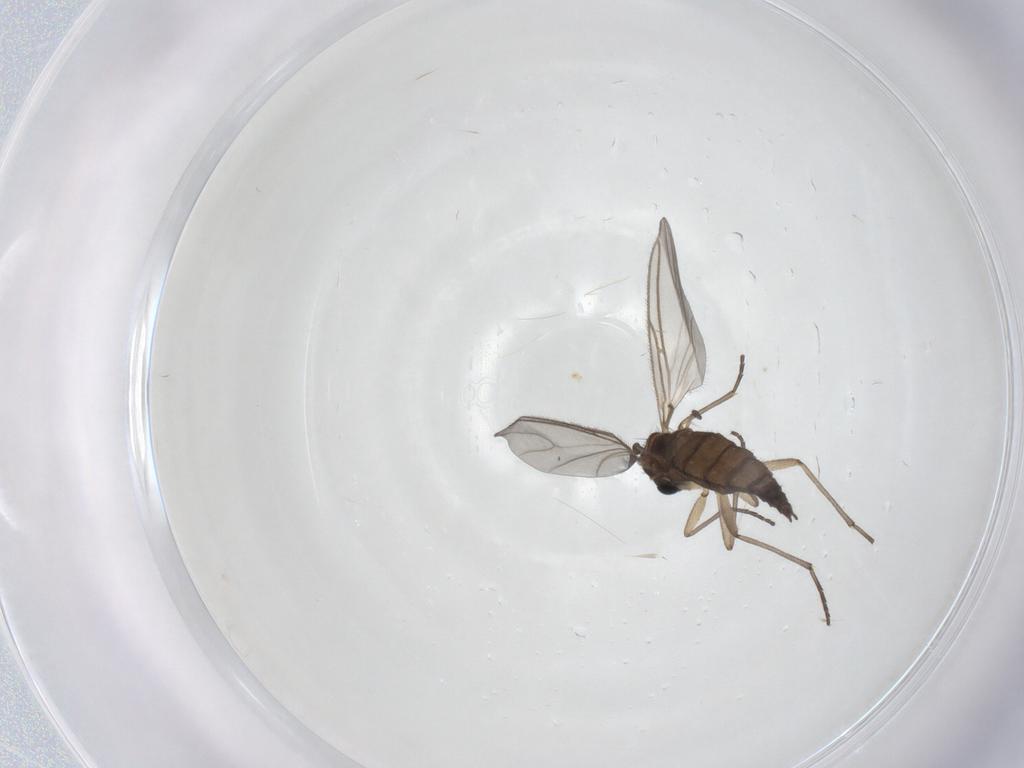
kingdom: Animalia
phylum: Arthropoda
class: Insecta
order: Diptera
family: Sciaridae
